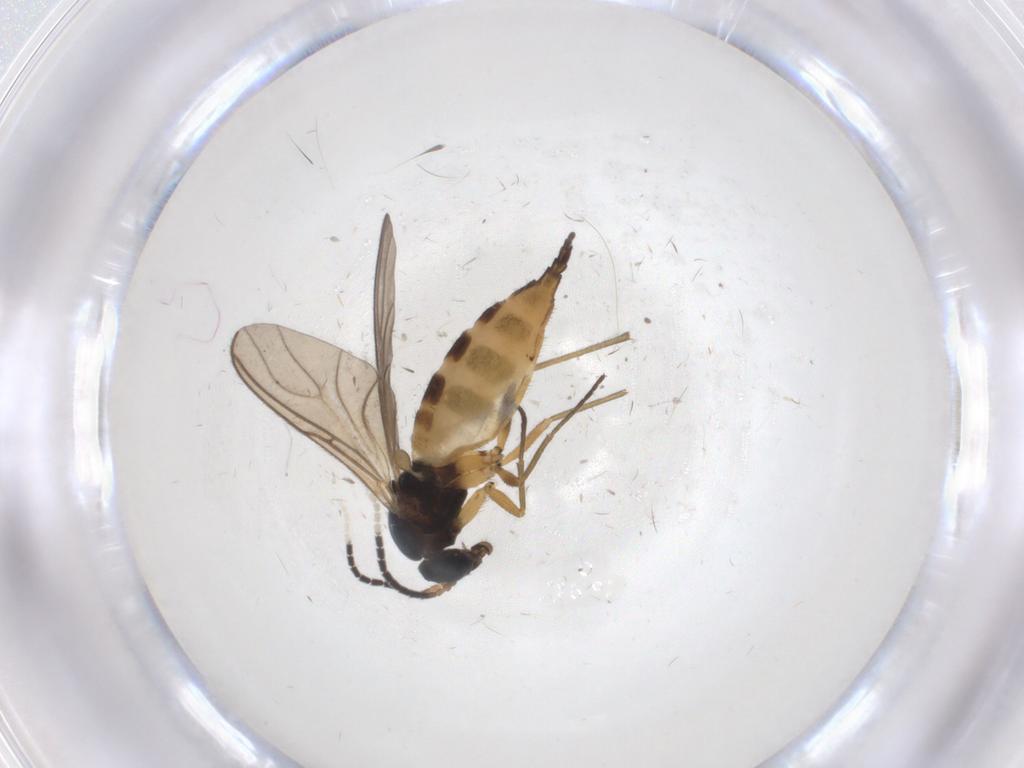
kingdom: Animalia
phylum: Arthropoda
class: Insecta
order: Diptera
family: Sciaridae
